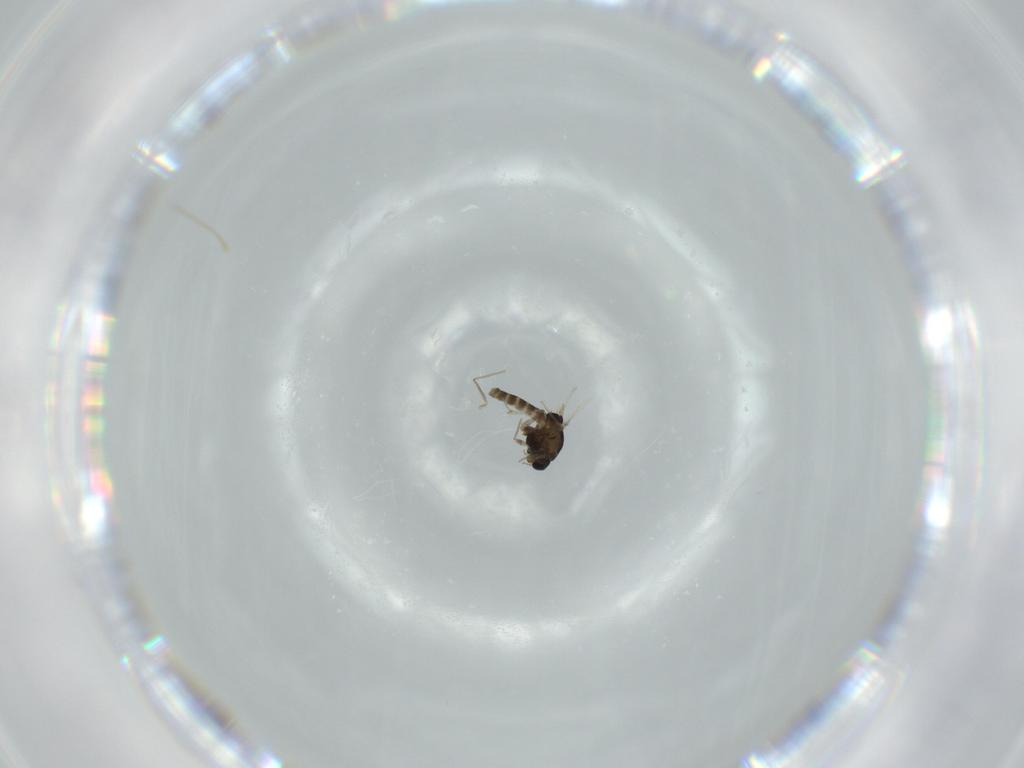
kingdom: Animalia
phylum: Arthropoda
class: Insecta
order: Diptera
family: Chironomidae
